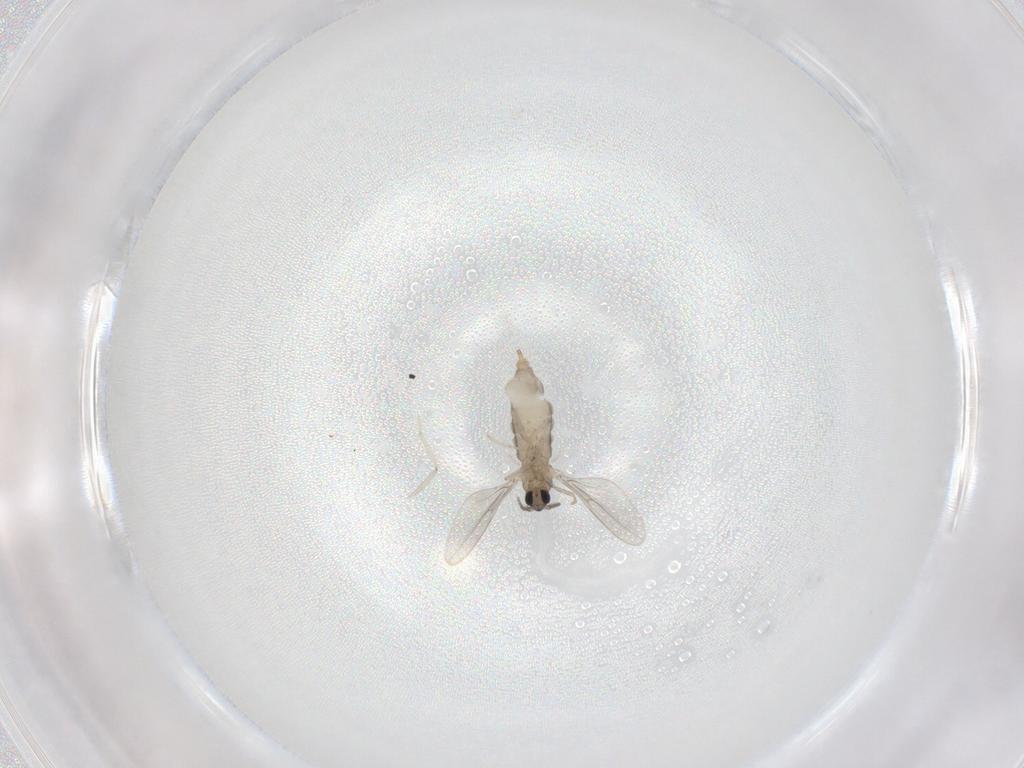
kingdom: Animalia
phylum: Arthropoda
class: Insecta
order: Diptera
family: Cecidomyiidae
